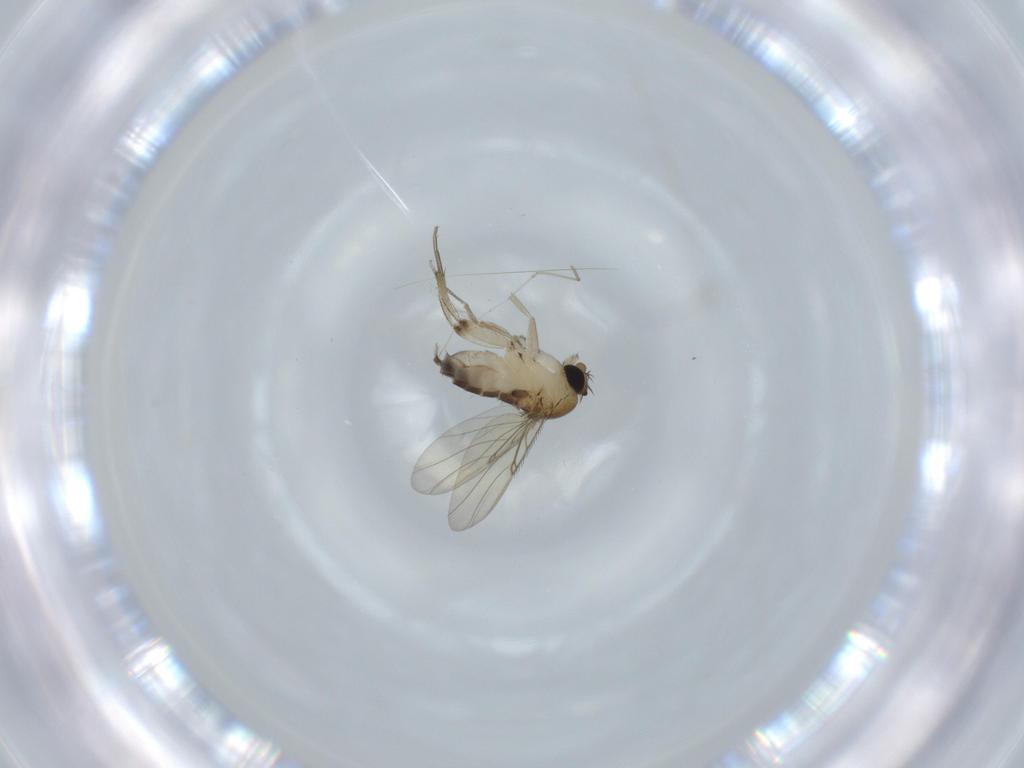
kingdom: Animalia
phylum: Arthropoda
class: Insecta
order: Diptera
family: Phoridae
